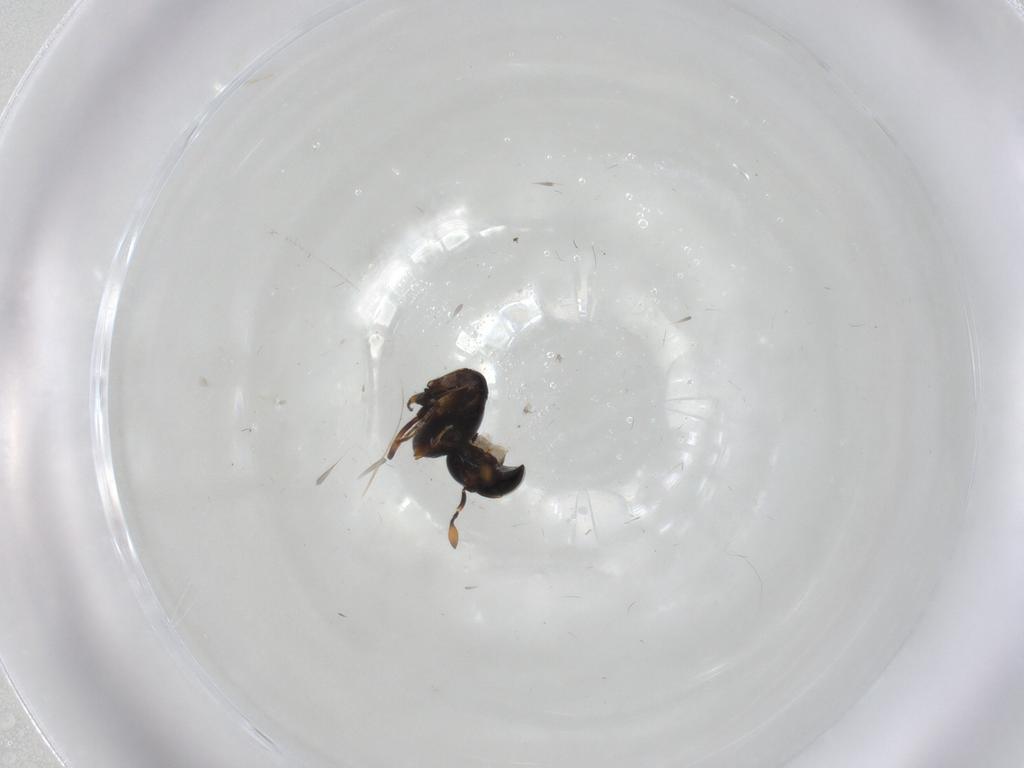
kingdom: Animalia
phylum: Arthropoda
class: Insecta
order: Hymenoptera
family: Scelionidae
